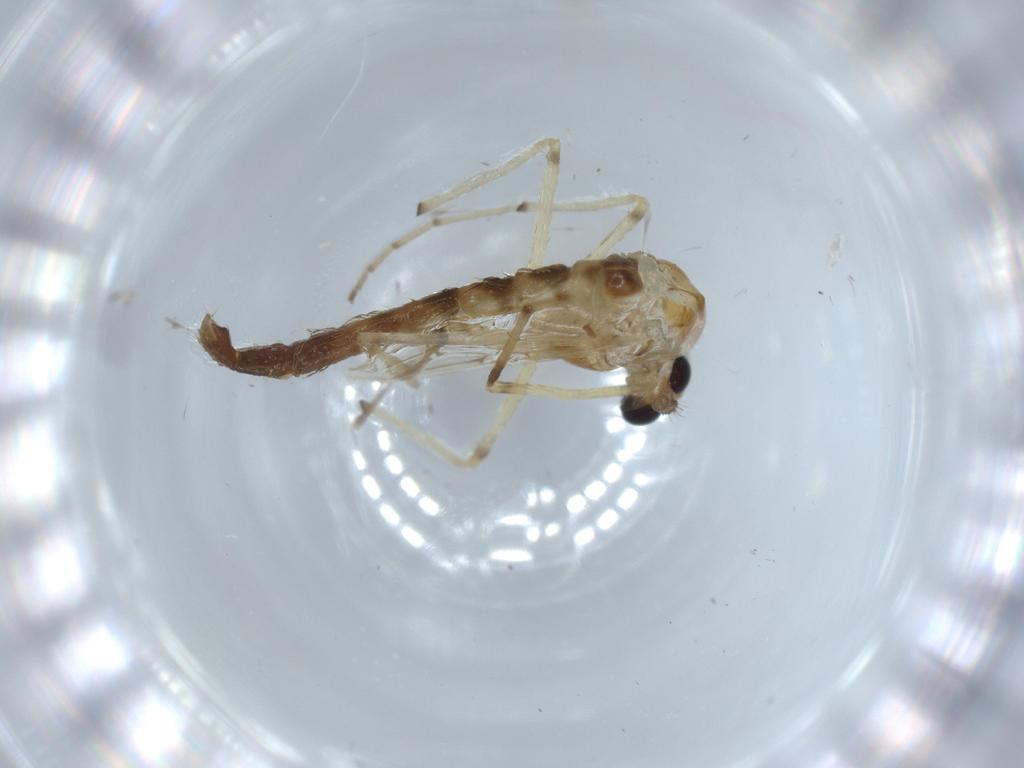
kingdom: Animalia
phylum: Arthropoda
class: Insecta
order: Diptera
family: Chironomidae
